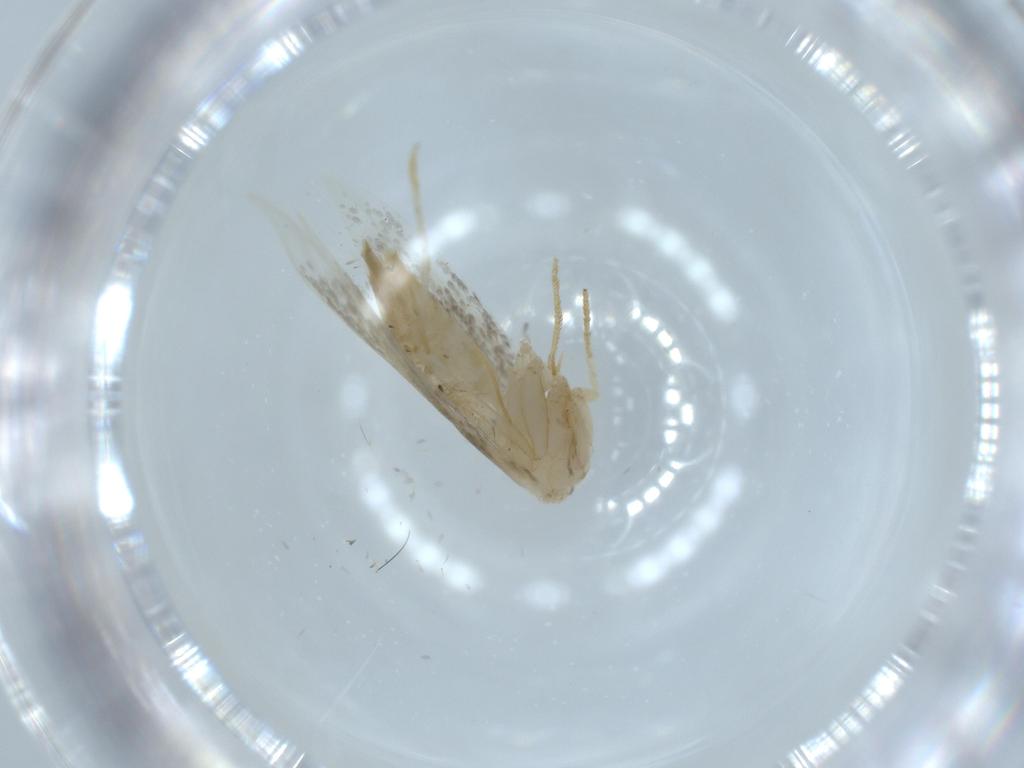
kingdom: Animalia
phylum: Arthropoda
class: Insecta
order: Lepidoptera
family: Tineidae
